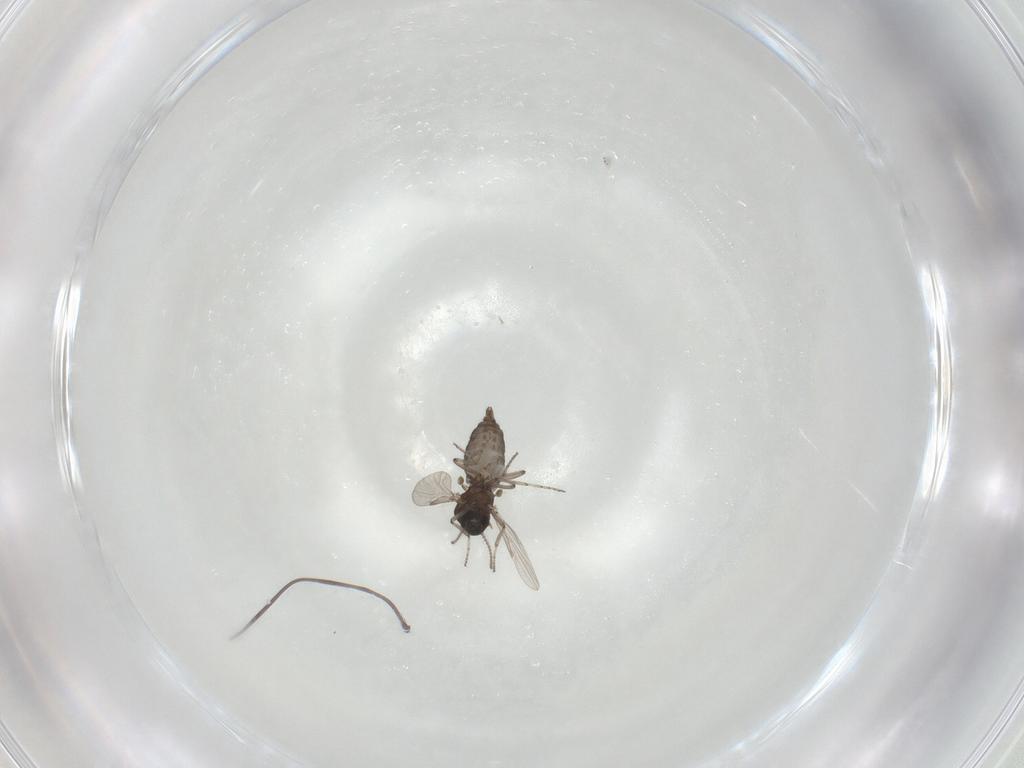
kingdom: Animalia
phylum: Arthropoda
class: Insecta
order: Diptera
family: Ceratopogonidae
